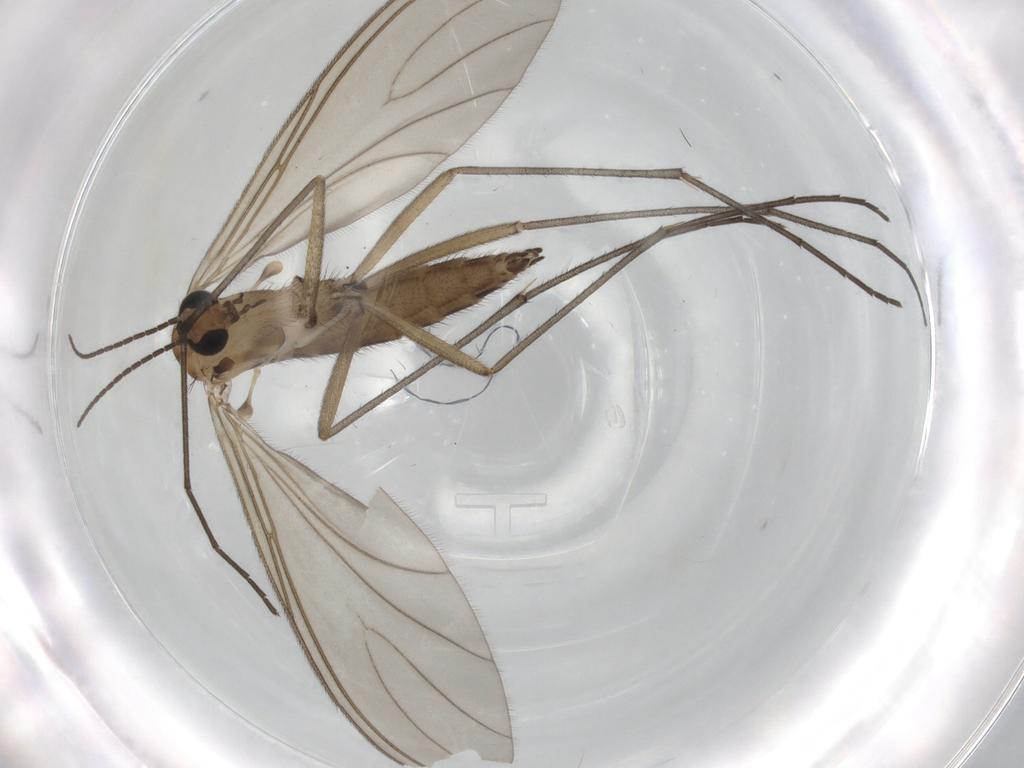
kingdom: Animalia
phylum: Arthropoda
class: Insecta
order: Diptera
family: Sciaridae
